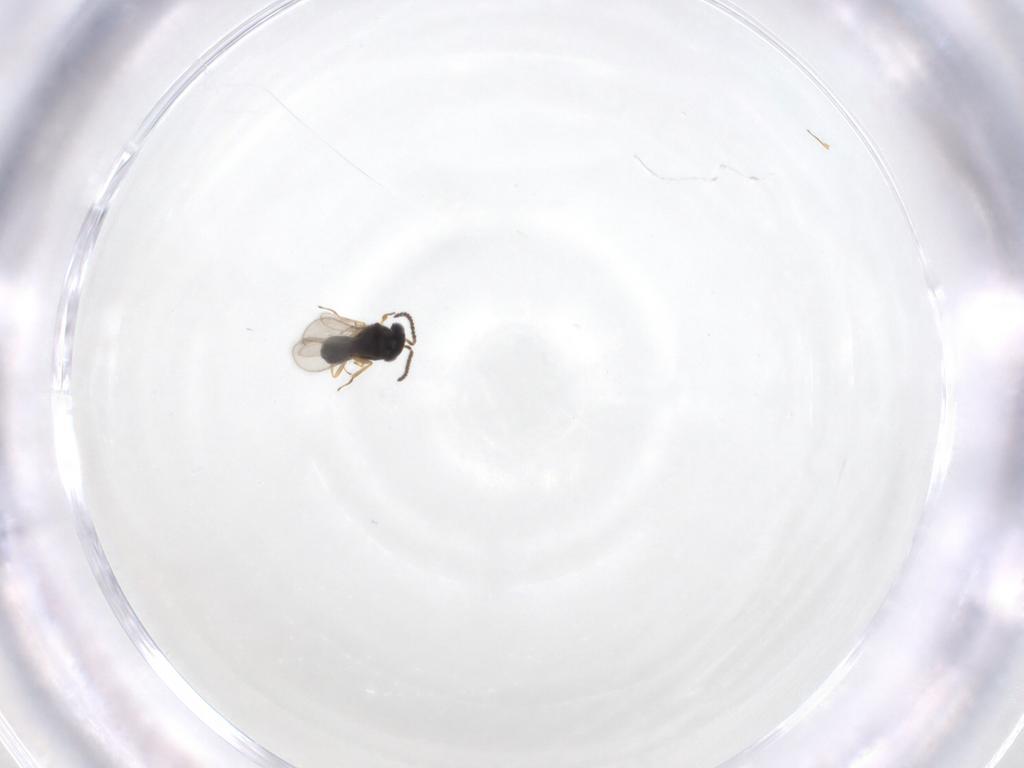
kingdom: Animalia
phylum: Arthropoda
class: Insecta
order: Hymenoptera
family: Scelionidae
